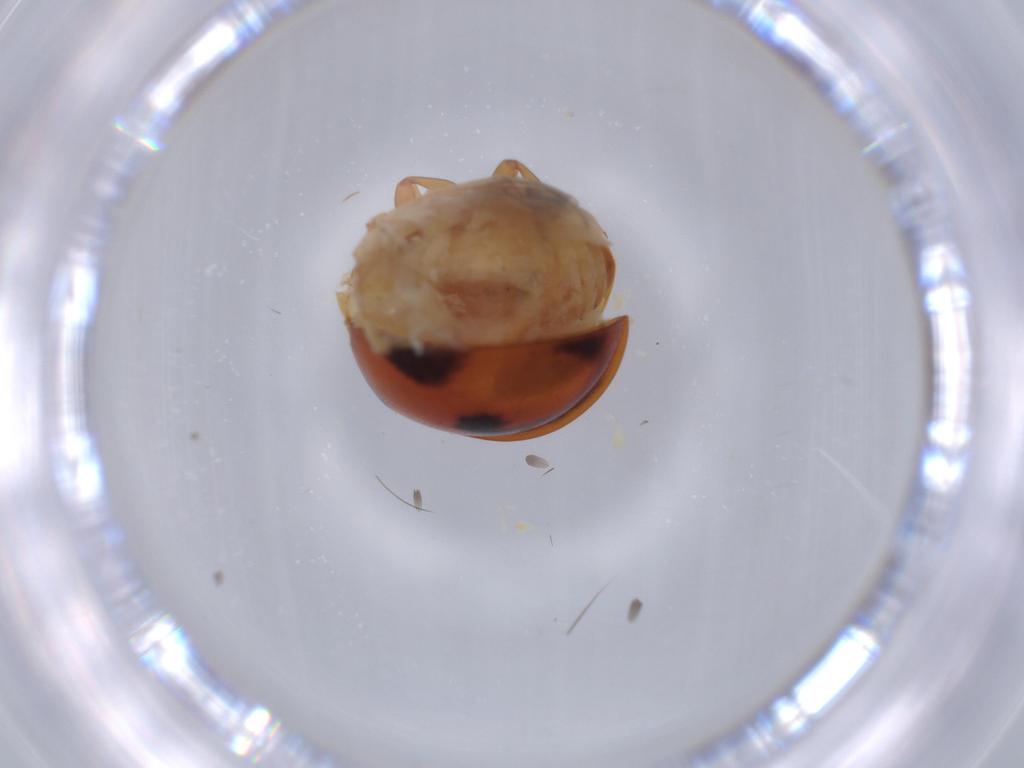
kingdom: Animalia
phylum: Arthropoda
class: Insecta
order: Coleoptera
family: Coccinellidae
